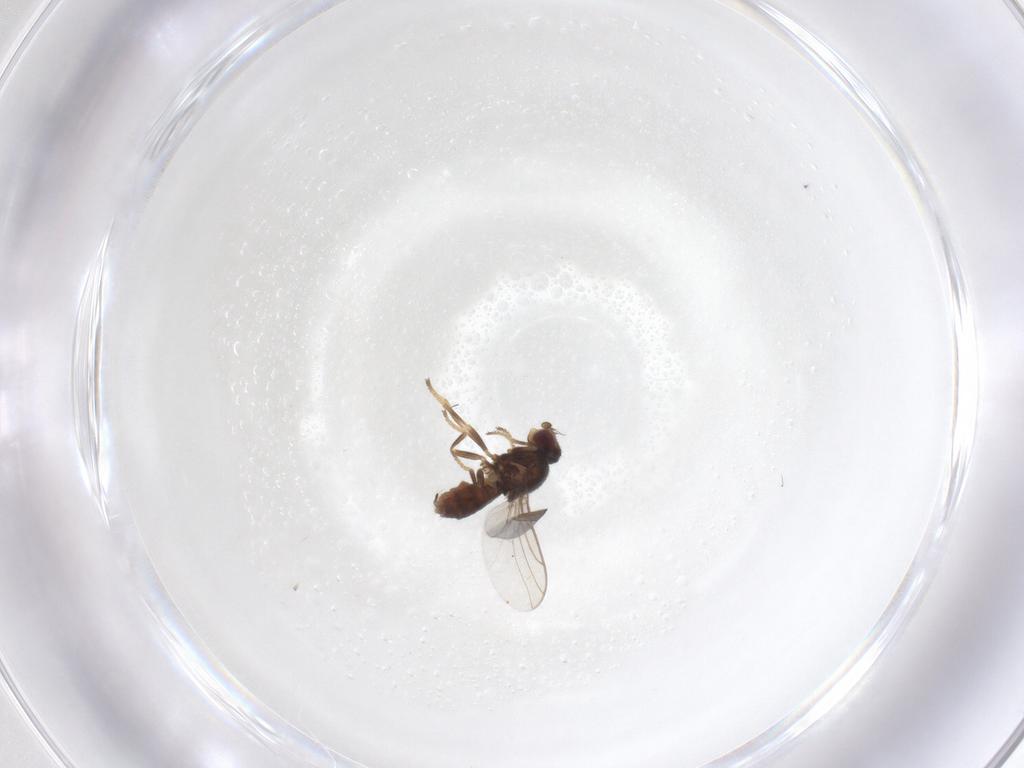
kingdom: Animalia
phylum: Arthropoda
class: Insecta
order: Diptera
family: Chloropidae
